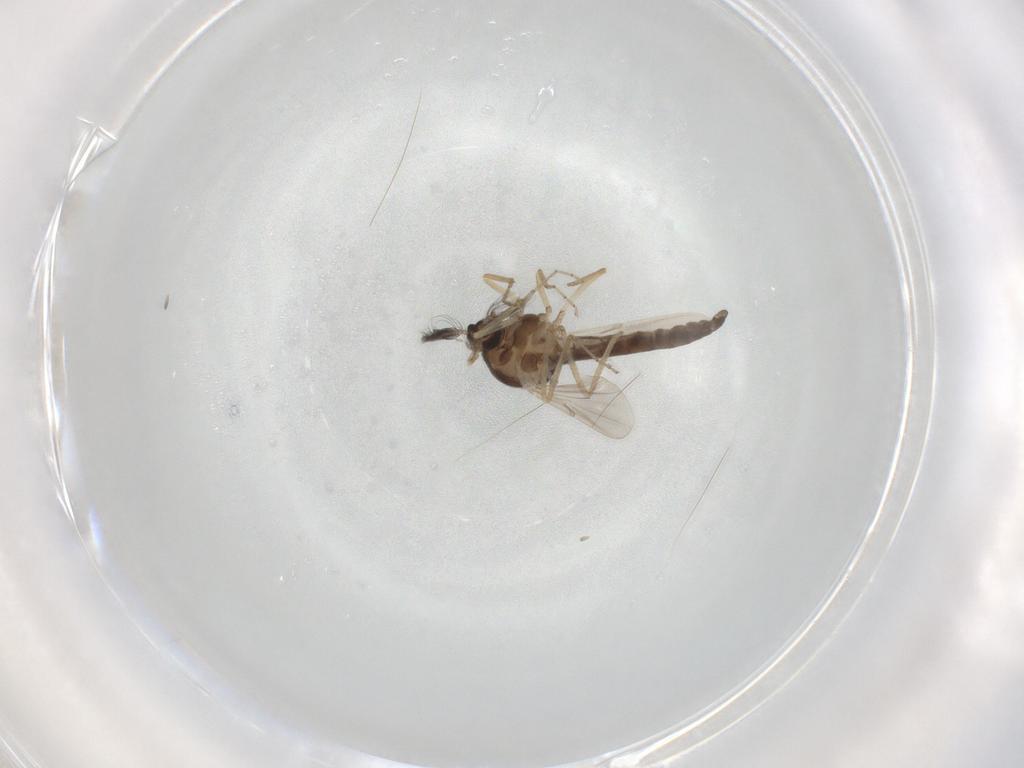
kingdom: Animalia
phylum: Arthropoda
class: Insecta
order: Diptera
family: Ceratopogonidae
